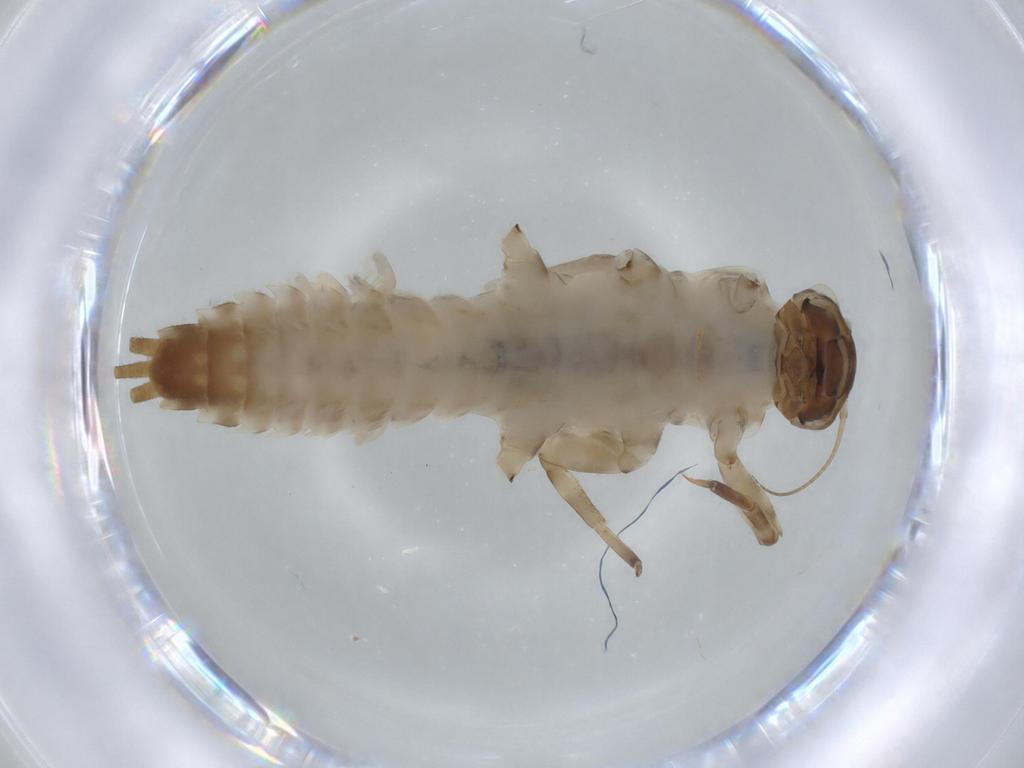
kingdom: Animalia
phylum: Arthropoda
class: Insecta
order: Ephemeroptera
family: Ephemerellidae
